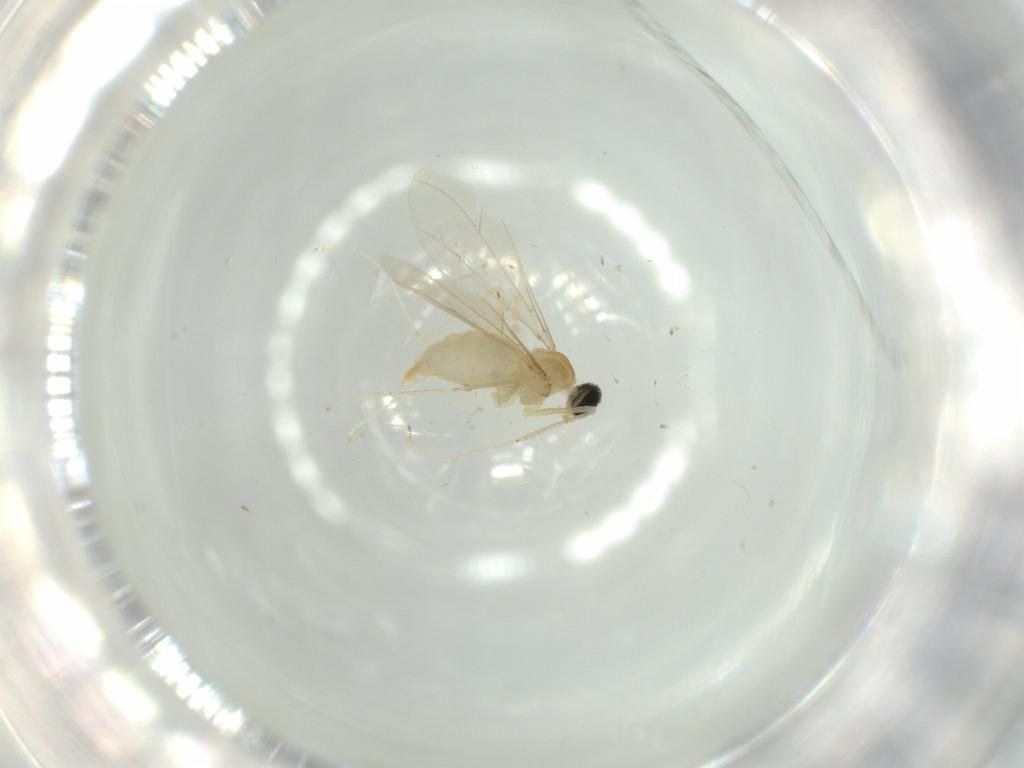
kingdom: Animalia
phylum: Arthropoda
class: Insecta
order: Diptera
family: Cecidomyiidae
